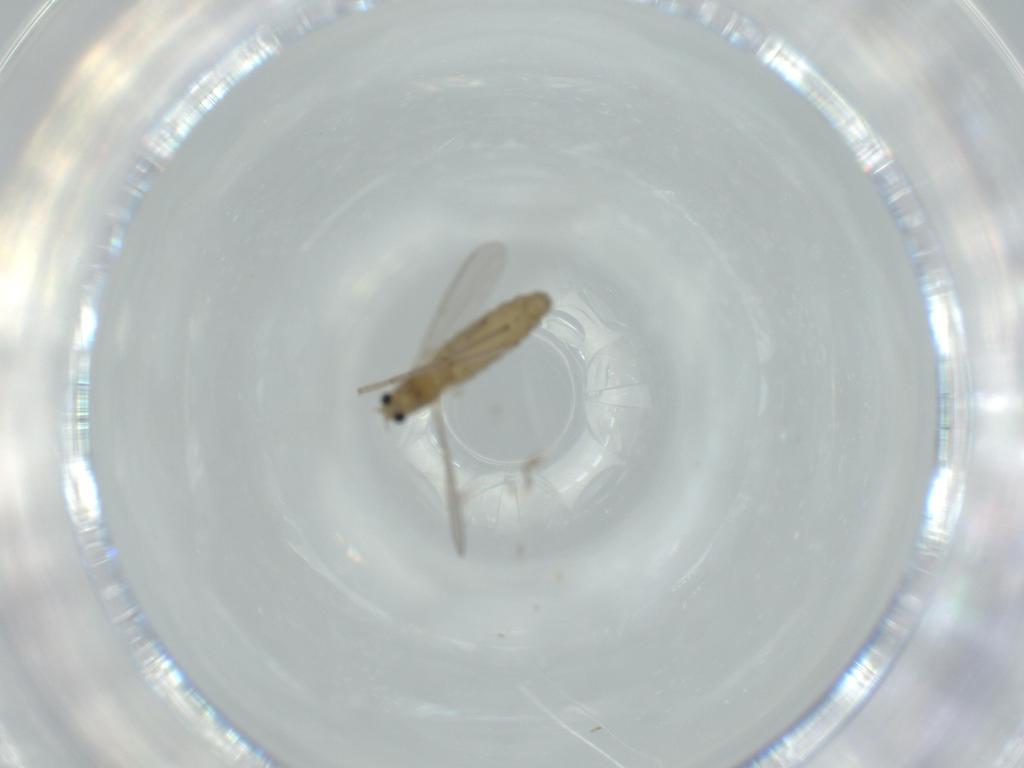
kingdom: Animalia
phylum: Arthropoda
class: Insecta
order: Diptera
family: Chironomidae
